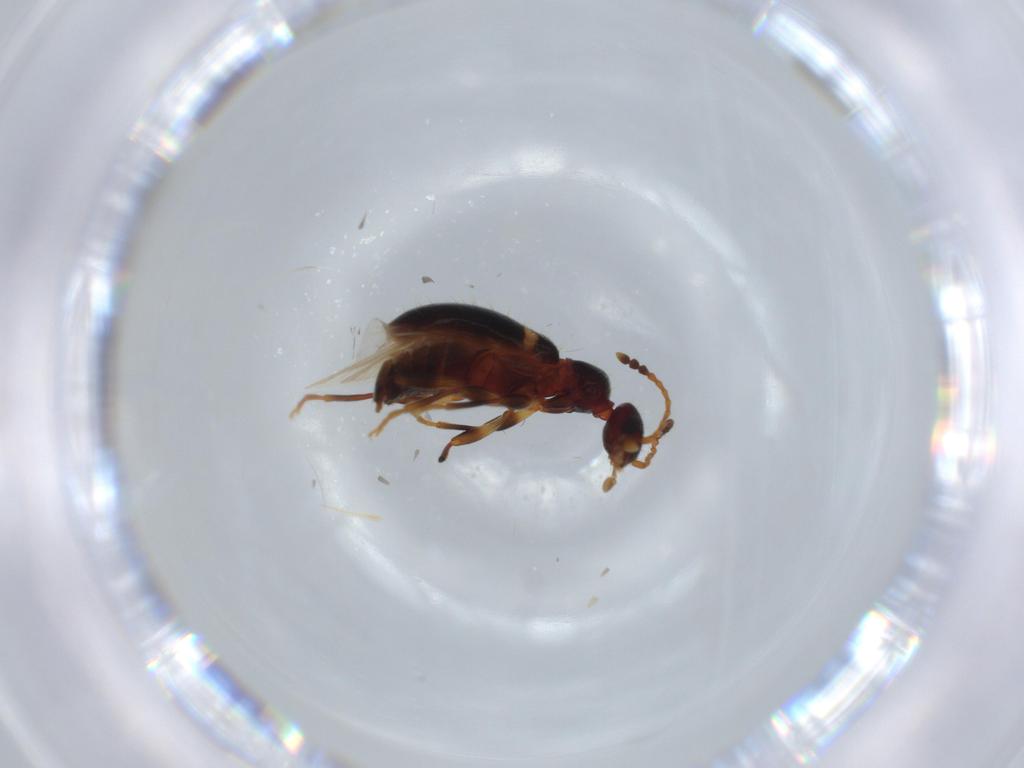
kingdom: Animalia
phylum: Arthropoda
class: Insecta
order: Coleoptera
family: Anthicidae
